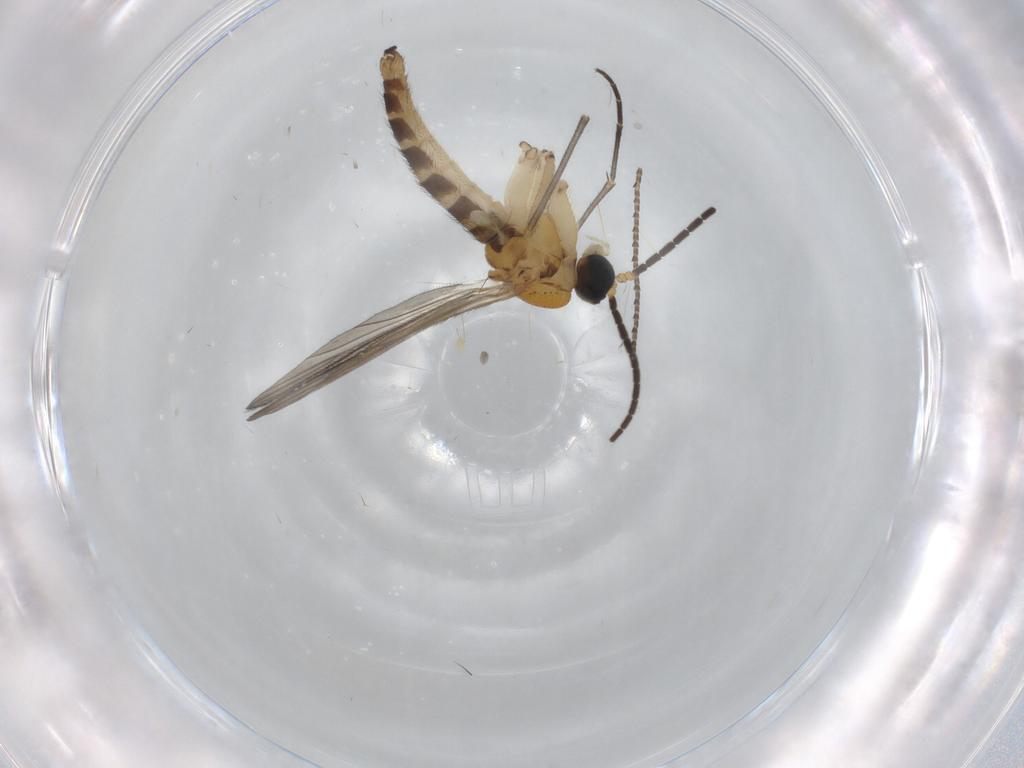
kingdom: Animalia
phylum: Arthropoda
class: Insecta
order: Diptera
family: Sciaridae
